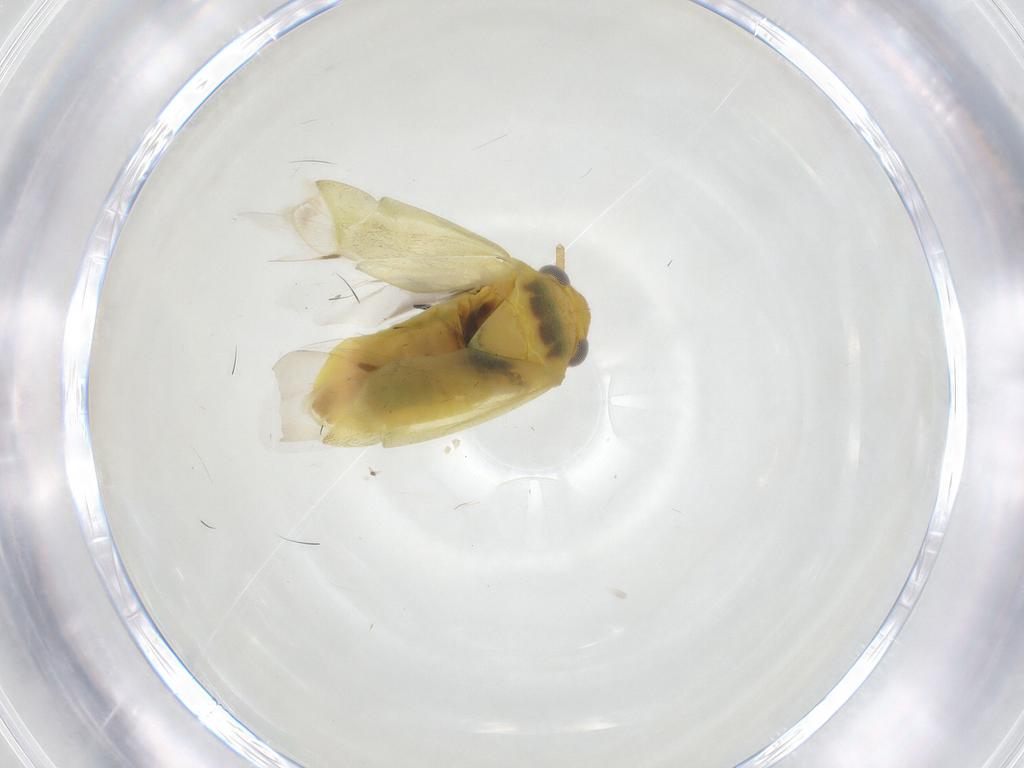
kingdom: Animalia
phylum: Arthropoda
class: Insecta
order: Hemiptera
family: Miridae
